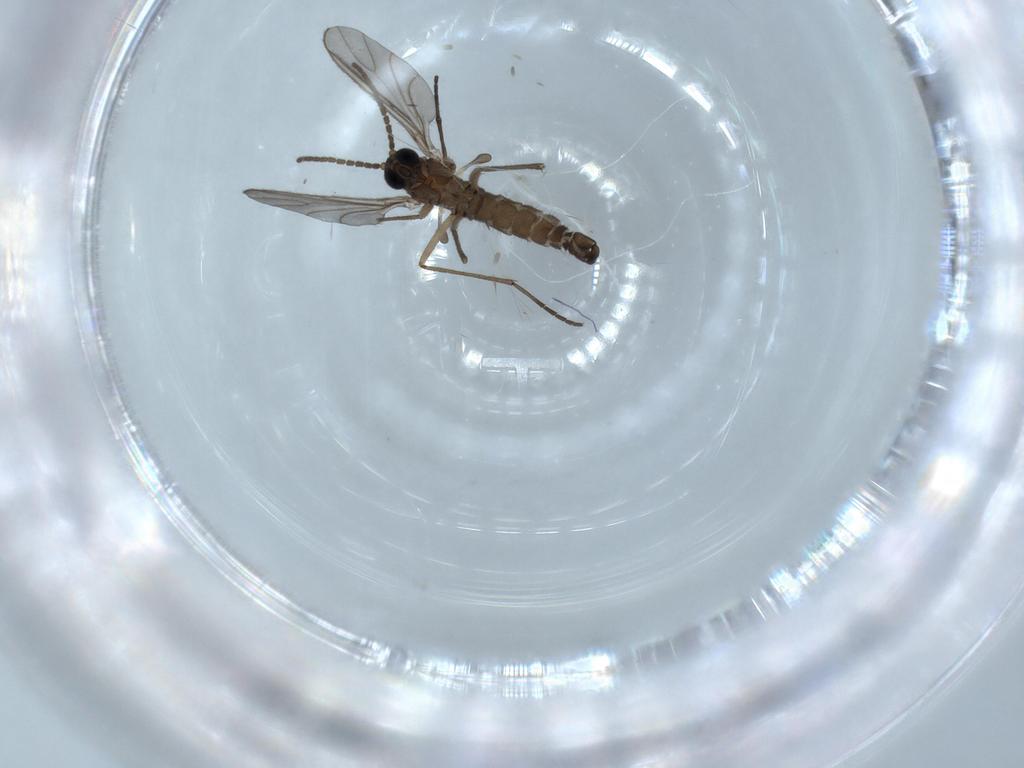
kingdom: Animalia
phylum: Arthropoda
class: Insecta
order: Diptera
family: Sciaridae
